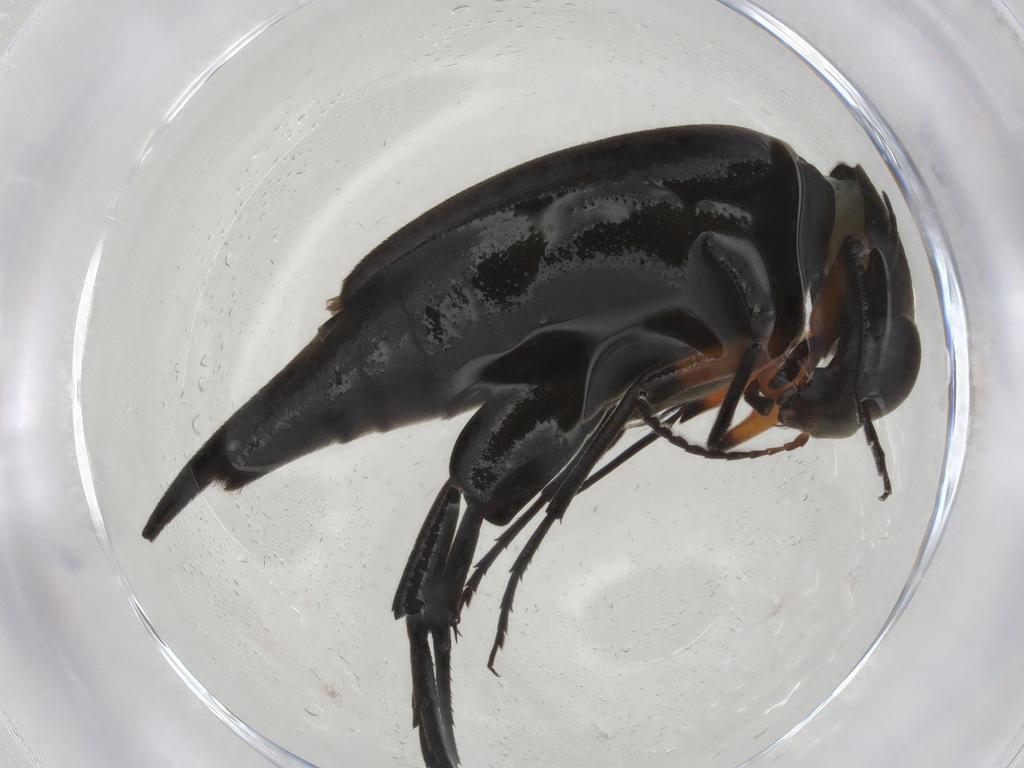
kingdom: Animalia
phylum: Arthropoda
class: Insecta
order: Coleoptera
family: Mordellidae
